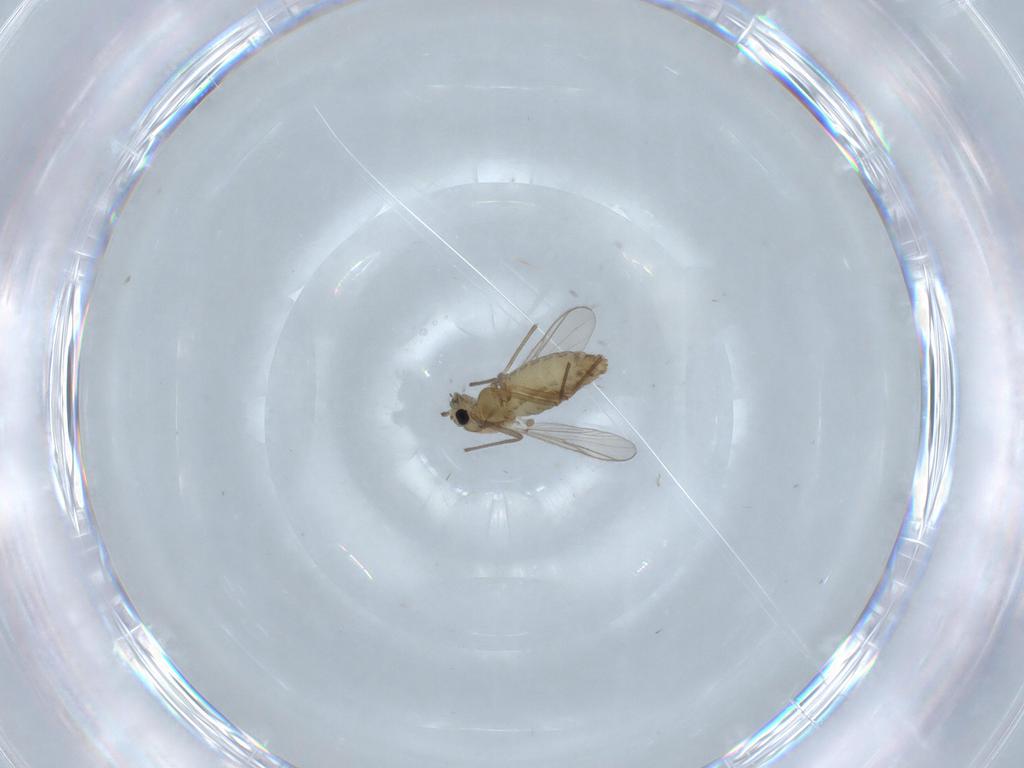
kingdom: Animalia
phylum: Arthropoda
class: Insecta
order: Diptera
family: Chironomidae
